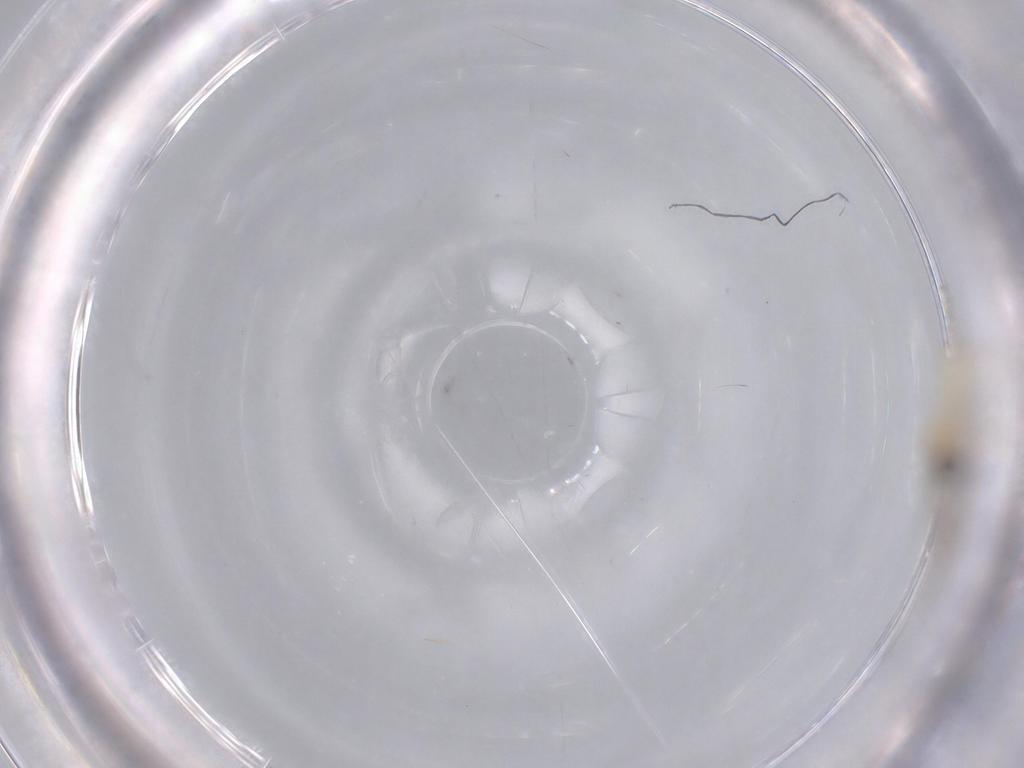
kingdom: Animalia
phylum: Arthropoda
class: Insecta
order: Diptera
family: Cecidomyiidae
